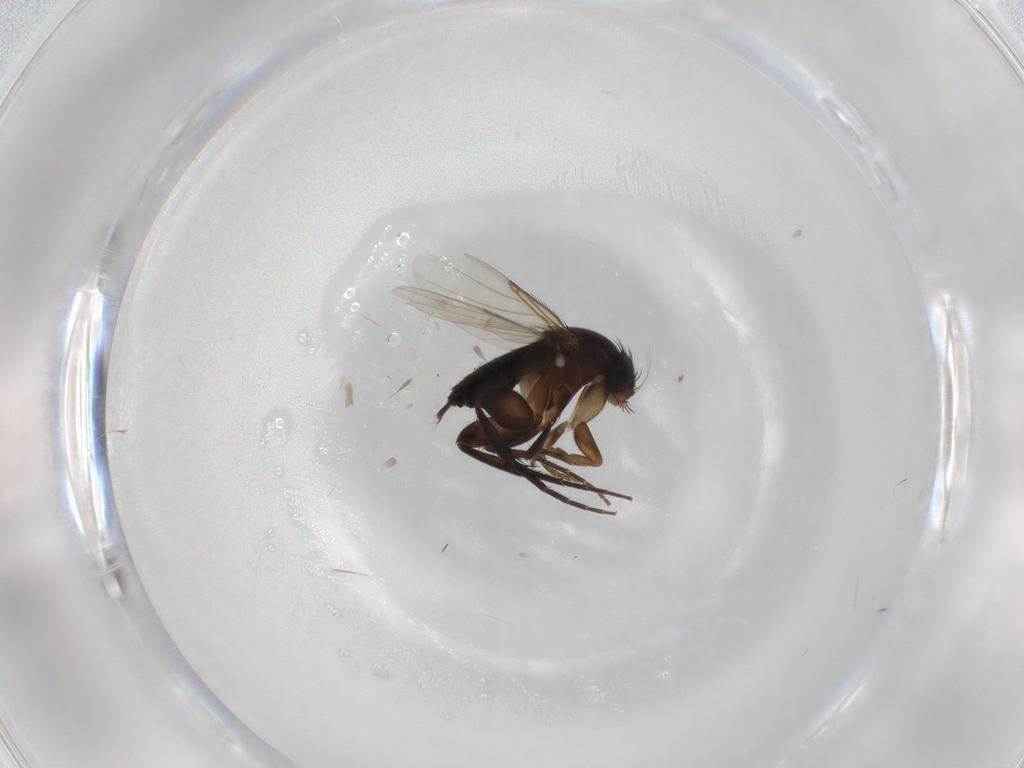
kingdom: Animalia
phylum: Arthropoda
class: Insecta
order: Diptera
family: Phoridae
